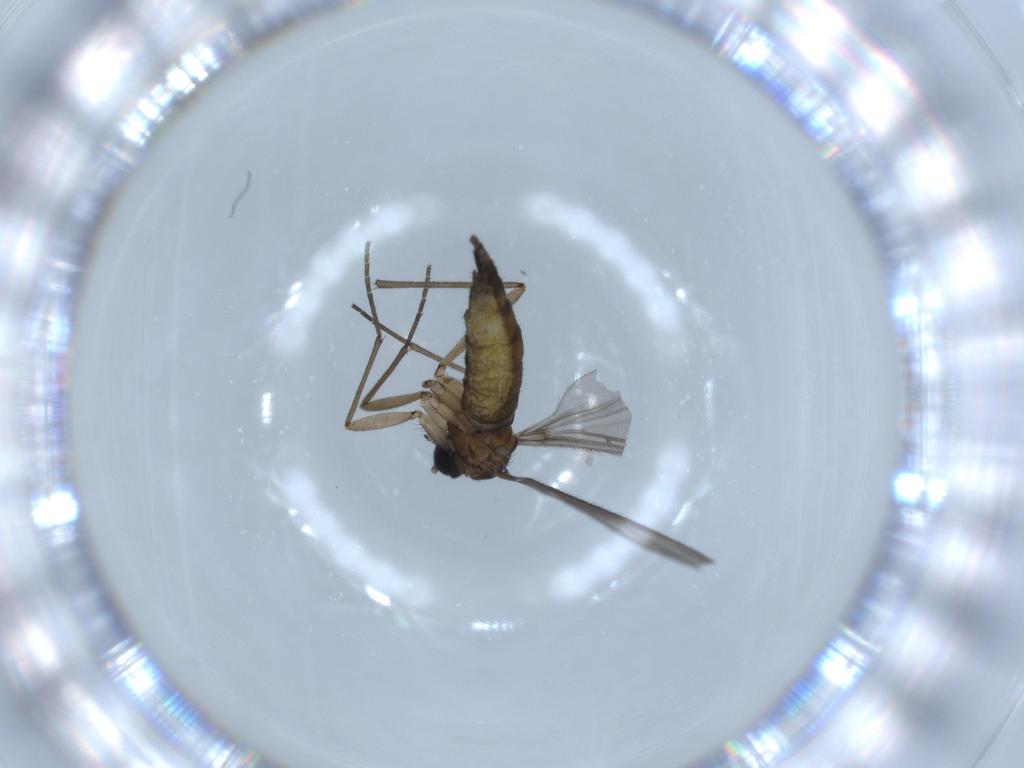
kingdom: Animalia
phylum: Arthropoda
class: Insecta
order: Diptera
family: Sciaridae
